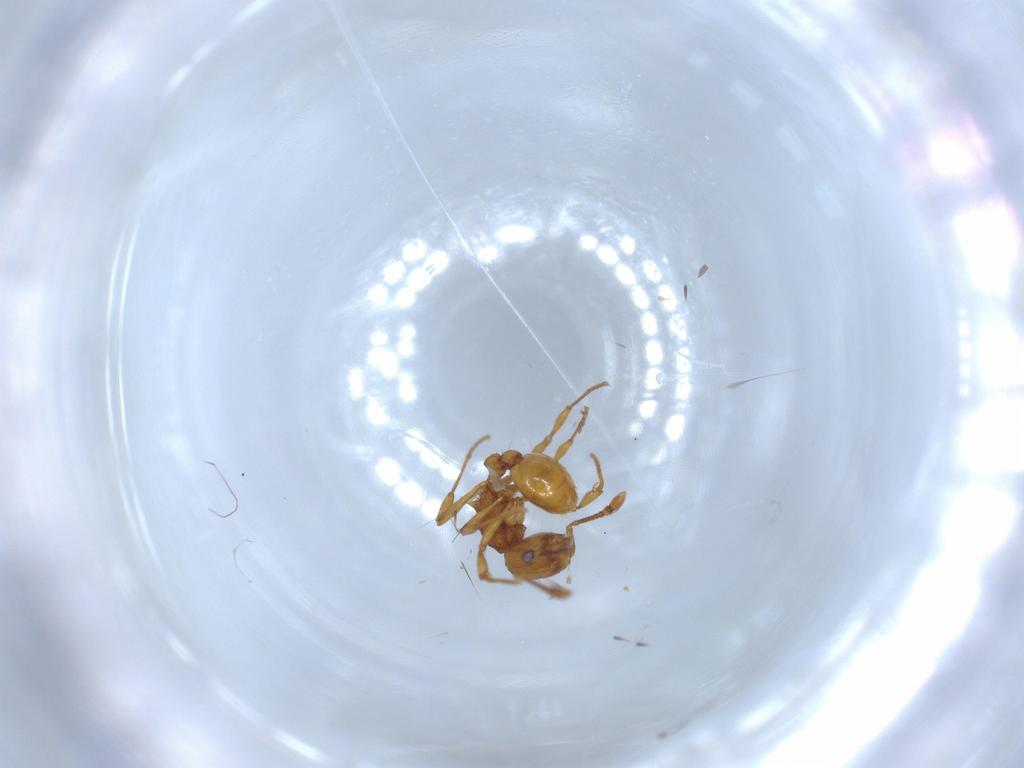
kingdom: Animalia
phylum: Arthropoda
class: Insecta
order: Hymenoptera
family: Formicidae
